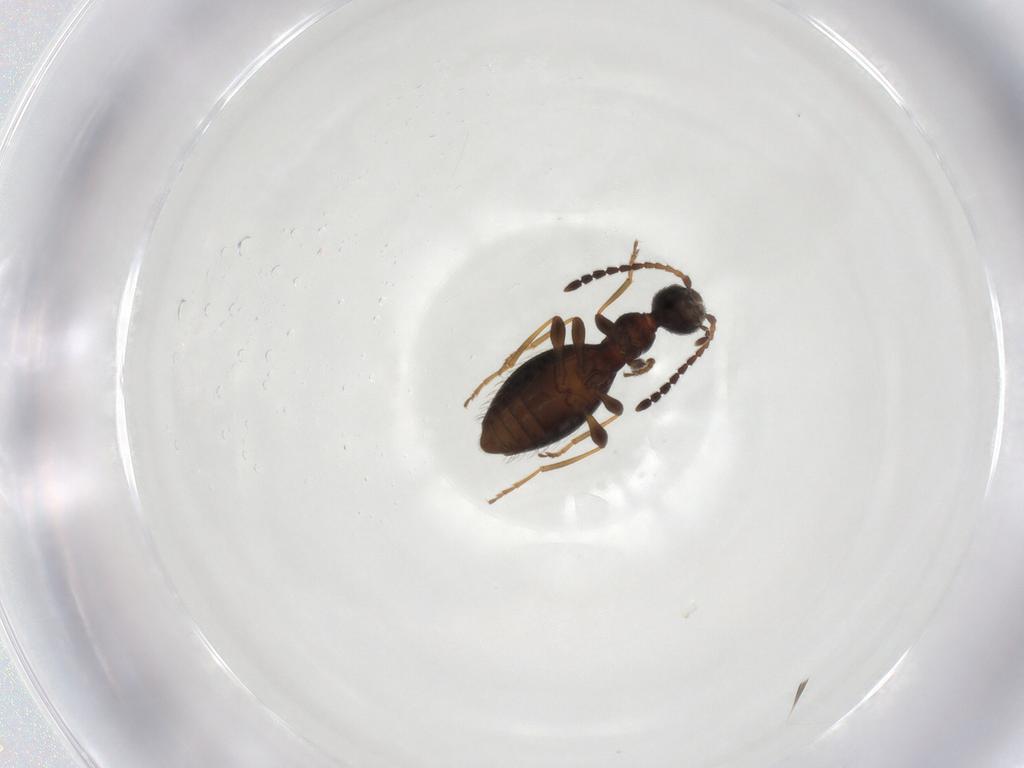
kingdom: Animalia
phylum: Arthropoda
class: Insecta
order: Coleoptera
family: Anthicidae
